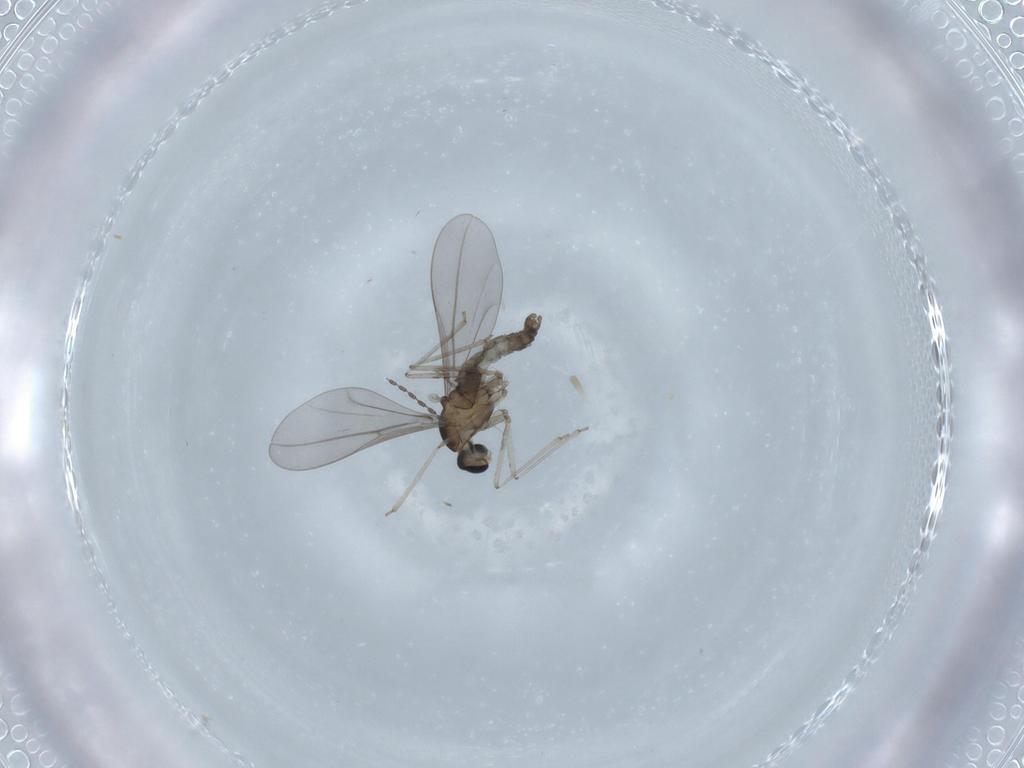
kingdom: Animalia
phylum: Arthropoda
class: Insecta
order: Diptera
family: Cecidomyiidae
